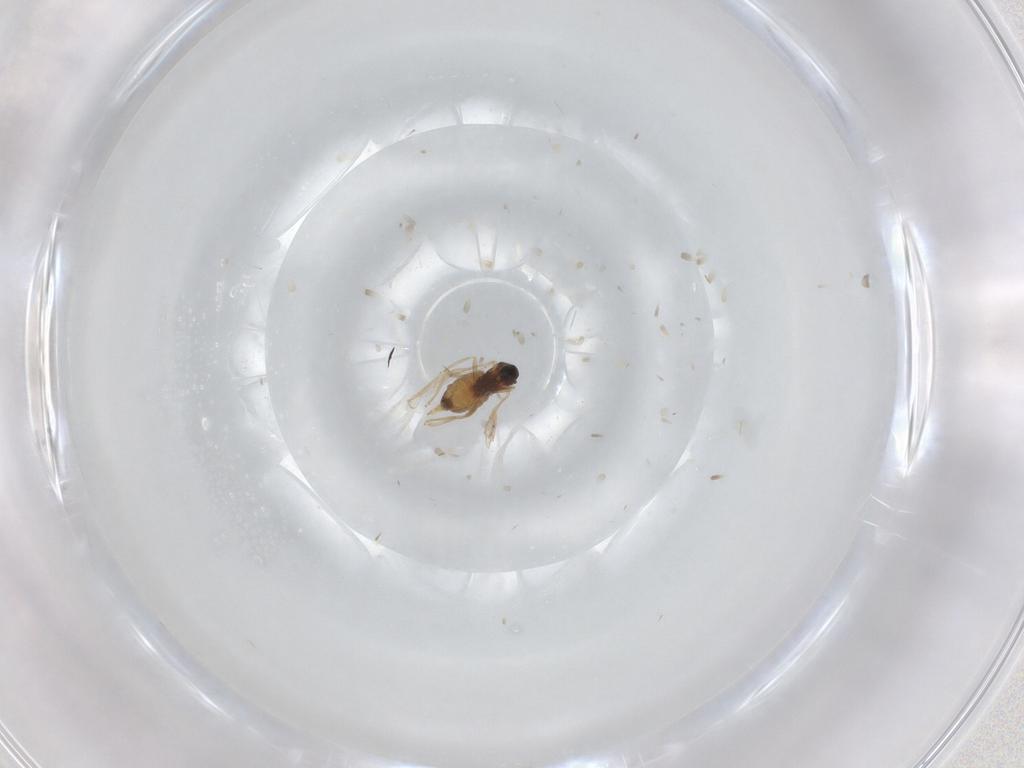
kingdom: Animalia
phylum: Arthropoda
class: Insecta
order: Diptera
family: Cecidomyiidae
